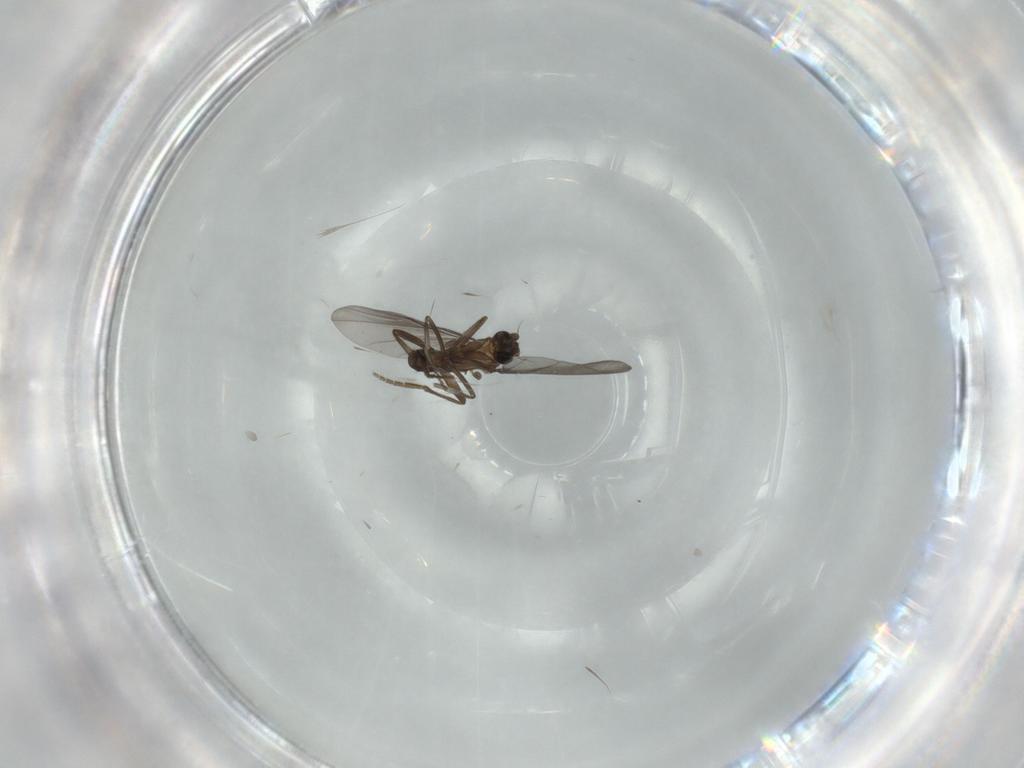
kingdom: Animalia
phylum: Arthropoda
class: Insecta
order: Diptera
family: Phoridae
